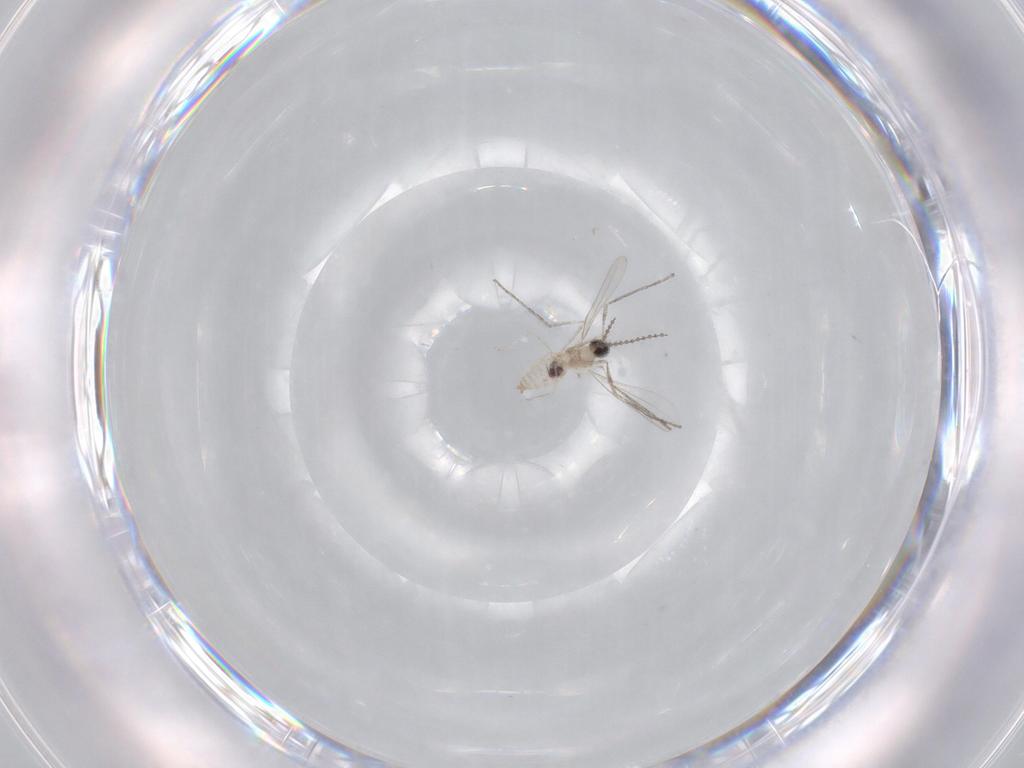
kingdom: Animalia
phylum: Arthropoda
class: Insecta
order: Diptera
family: Cecidomyiidae
